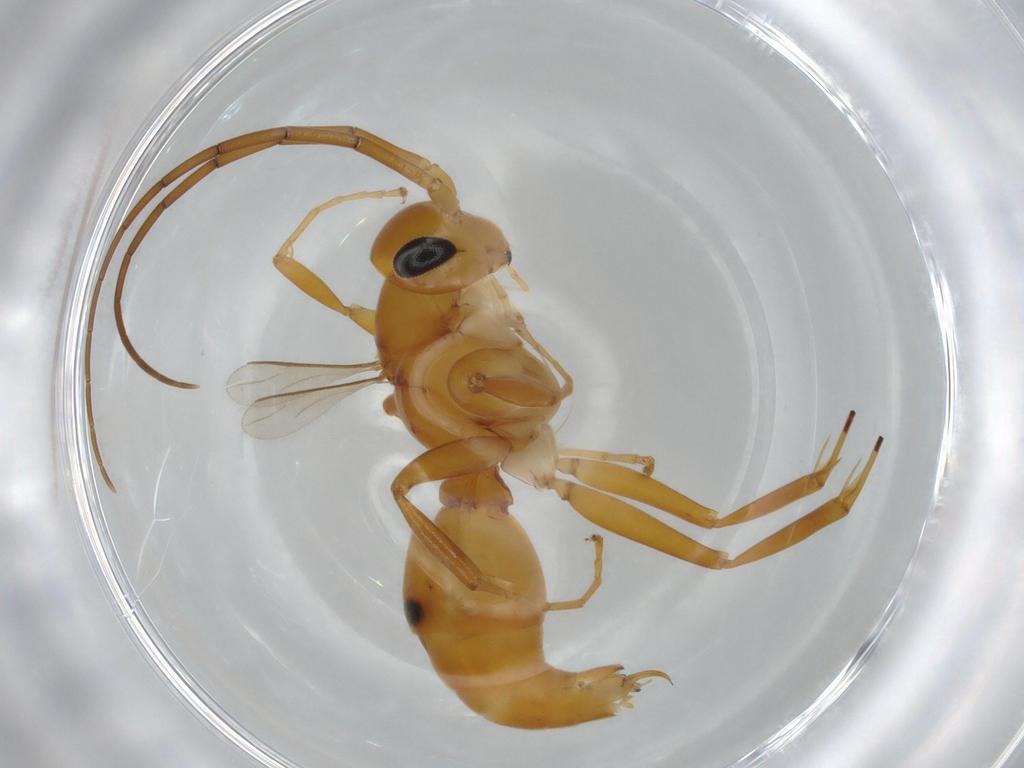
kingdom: Animalia
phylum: Arthropoda
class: Insecta
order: Hymenoptera
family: Rhopalosomatidae
